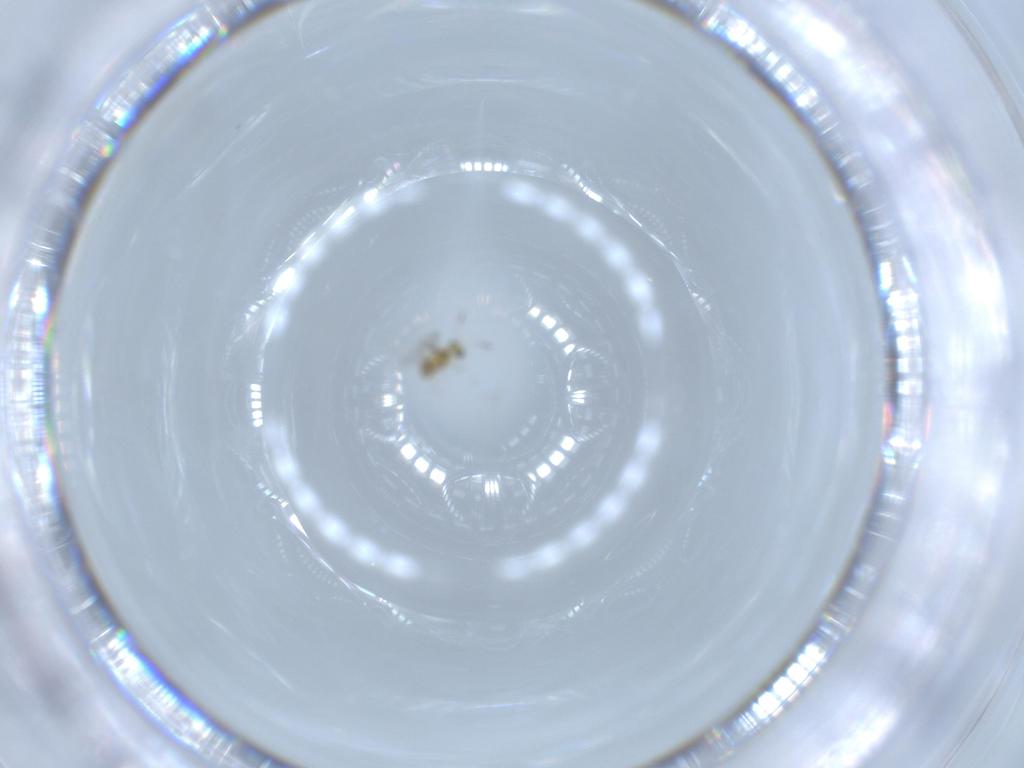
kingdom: Animalia
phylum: Arthropoda
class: Insecta
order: Hymenoptera
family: Mymaridae
